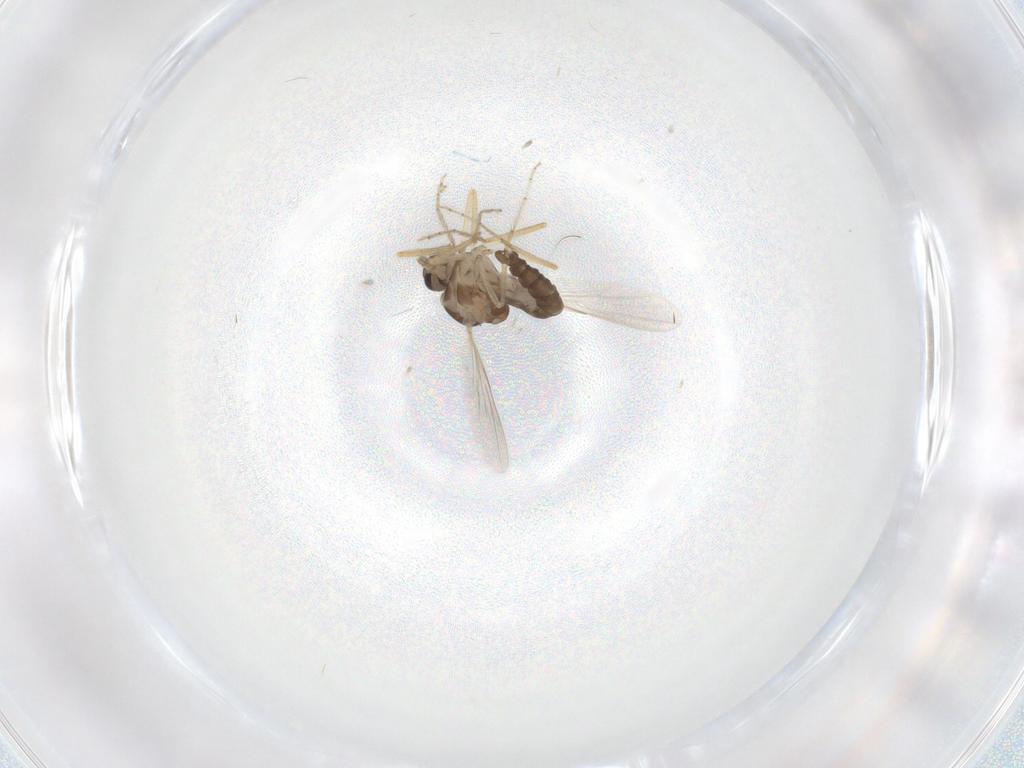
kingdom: Animalia
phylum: Arthropoda
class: Insecta
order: Diptera
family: Ceratopogonidae
